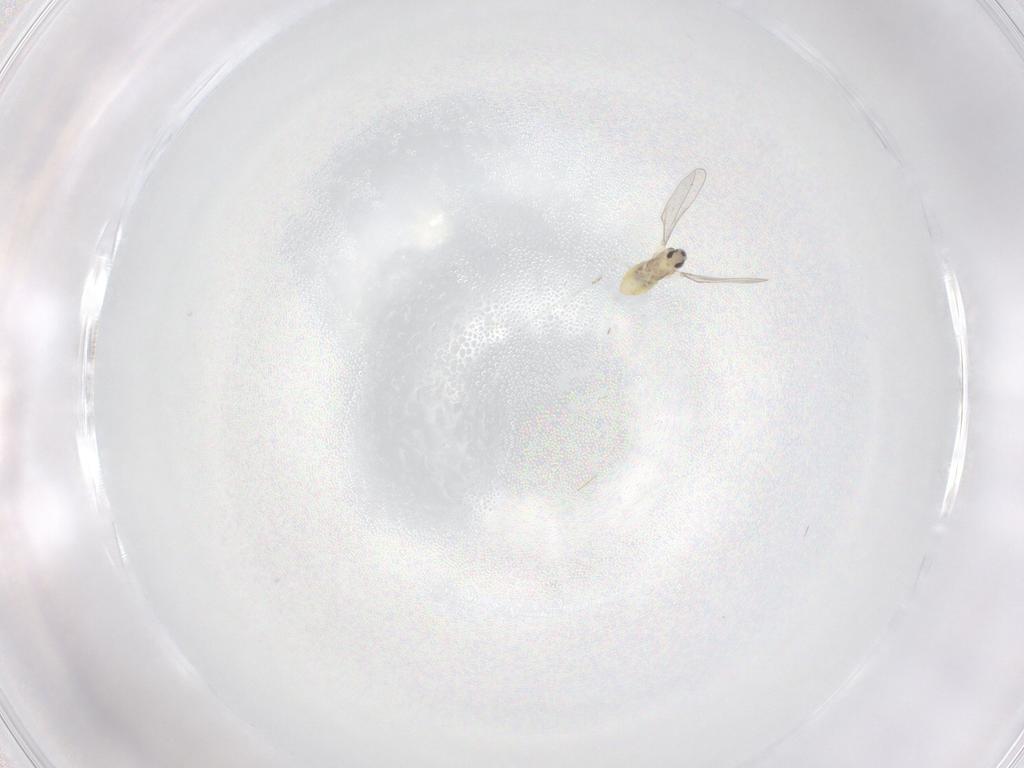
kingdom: Animalia
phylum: Arthropoda
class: Insecta
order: Diptera
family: Cecidomyiidae
